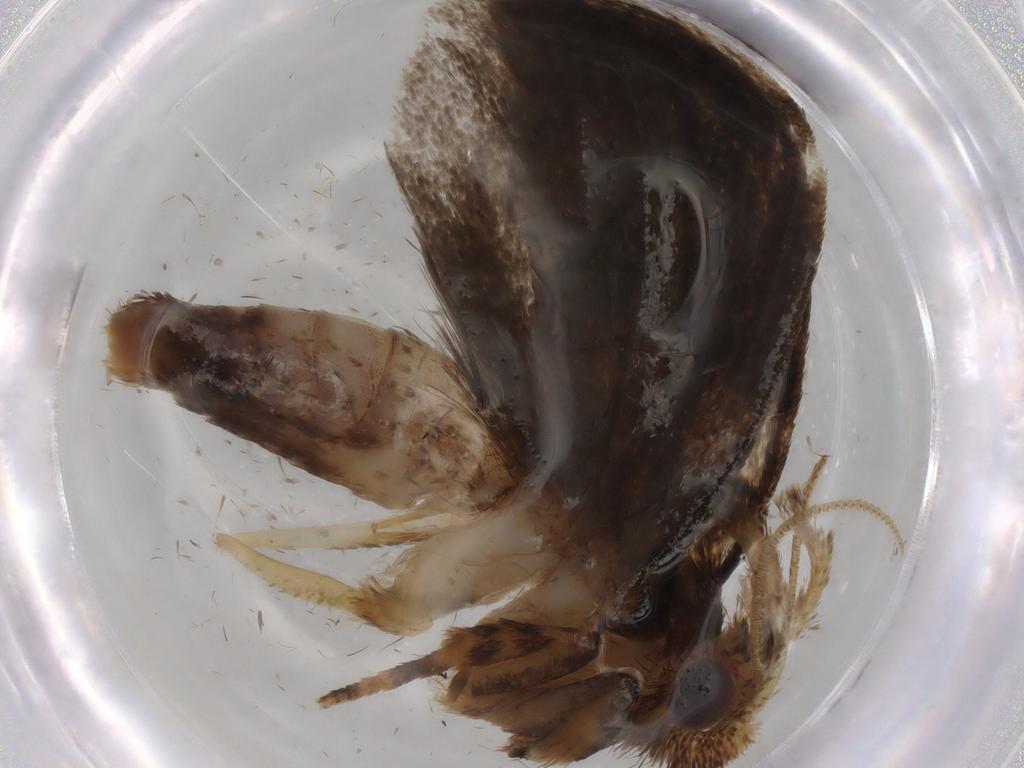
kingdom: Animalia
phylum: Arthropoda
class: Insecta
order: Lepidoptera
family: Tineidae
